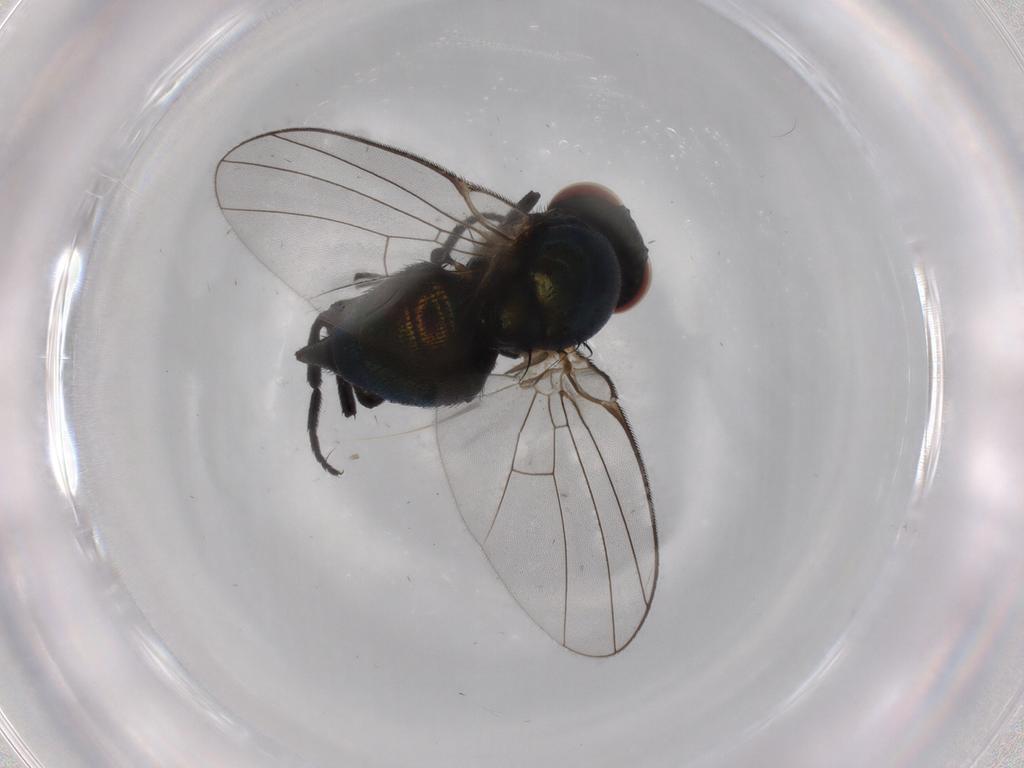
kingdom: Animalia
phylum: Arthropoda
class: Insecta
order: Diptera
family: Agromyzidae
